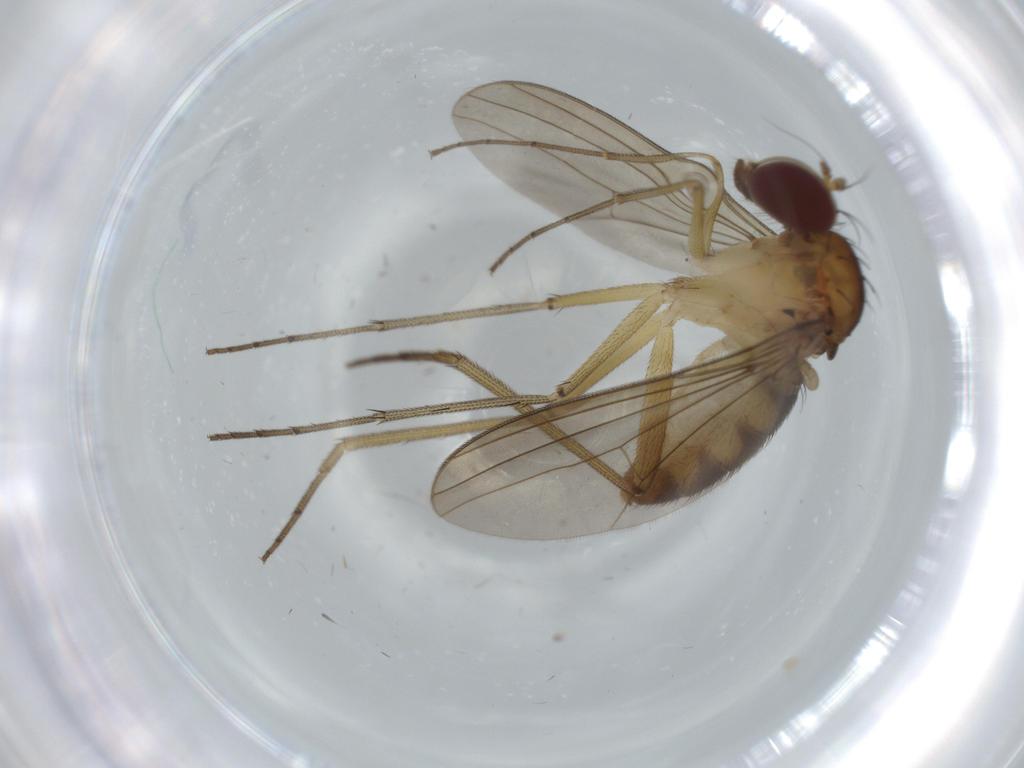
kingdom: Animalia
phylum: Arthropoda
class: Insecta
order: Diptera
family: Dolichopodidae
